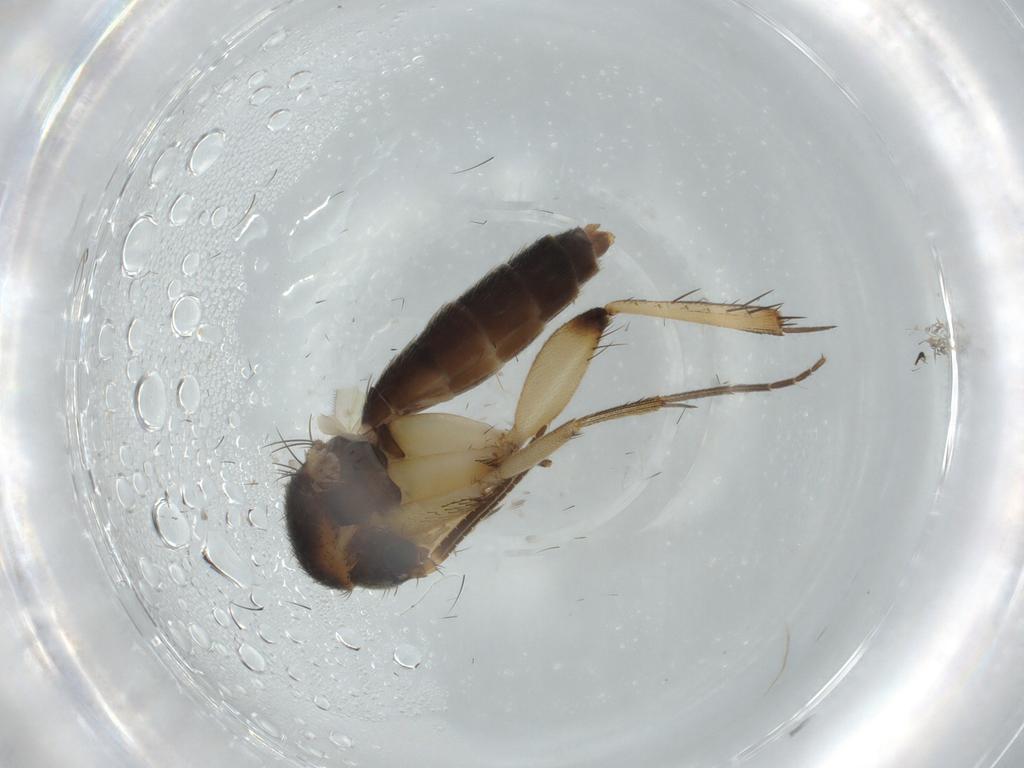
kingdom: Animalia
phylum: Arthropoda
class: Insecta
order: Diptera
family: Mycetophilidae
